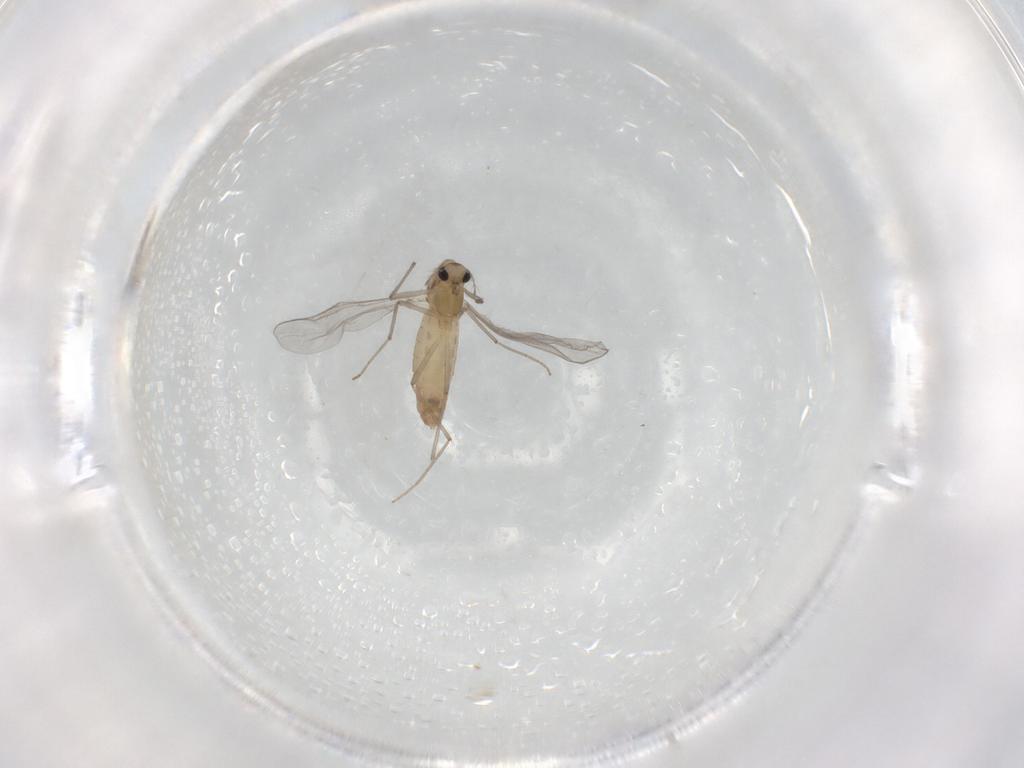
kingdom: Animalia
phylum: Arthropoda
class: Insecta
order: Diptera
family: Chironomidae
